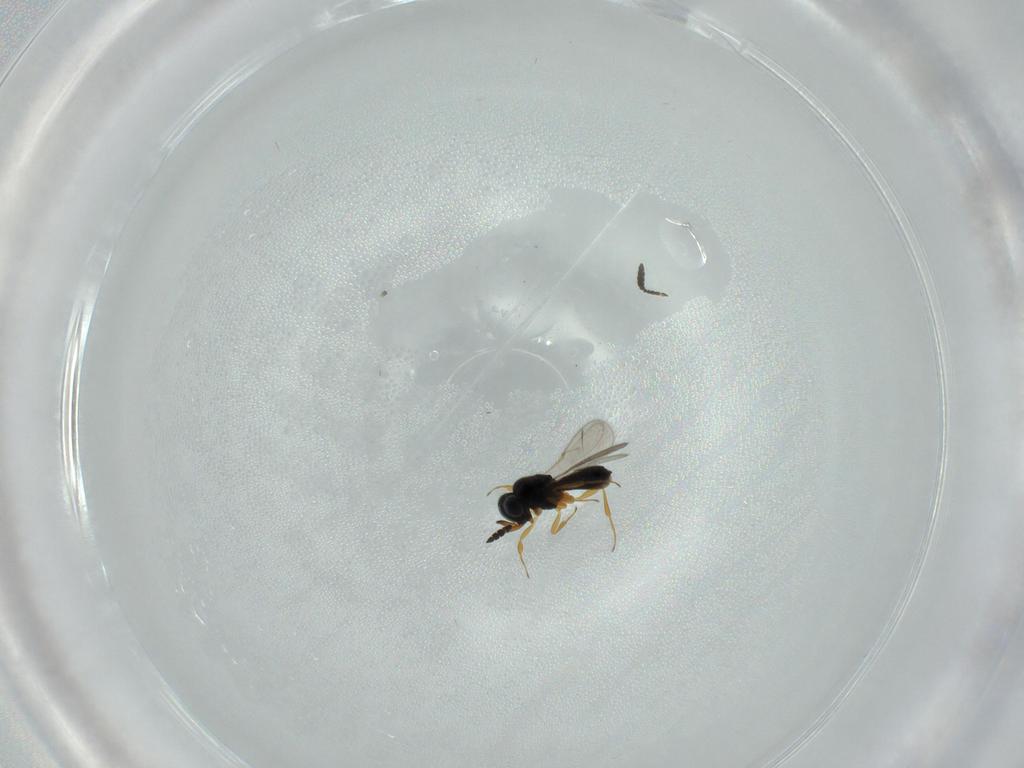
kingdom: Animalia
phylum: Arthropoda
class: Insecta
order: Hymenoptera
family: Scelionidae
